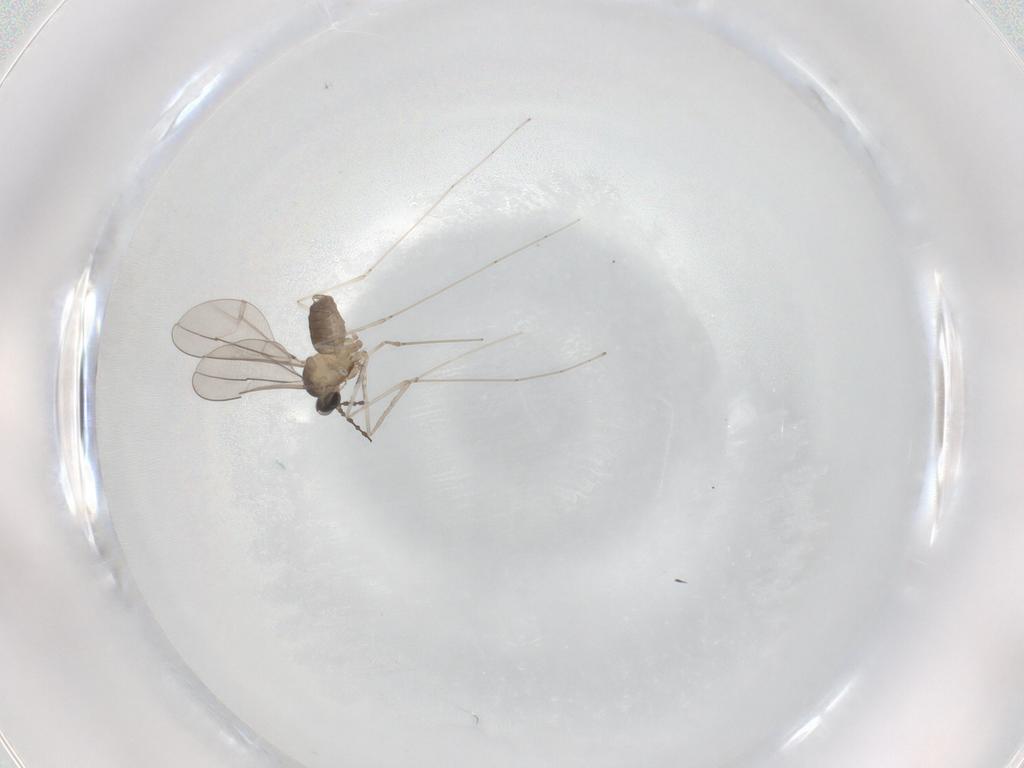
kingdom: Animalia
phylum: Arthropoda
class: Insecta
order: Diptera
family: Cecidomyiidae
